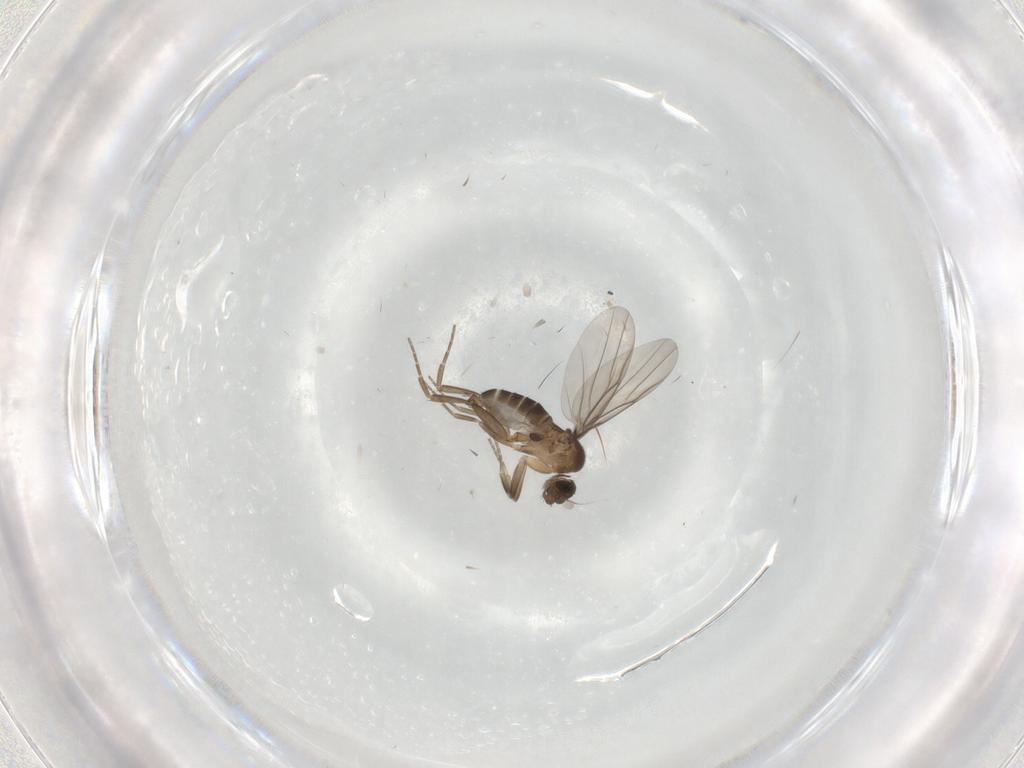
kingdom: Animalia
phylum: Arthropoda
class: Insecta
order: Diptera
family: Phoridae
